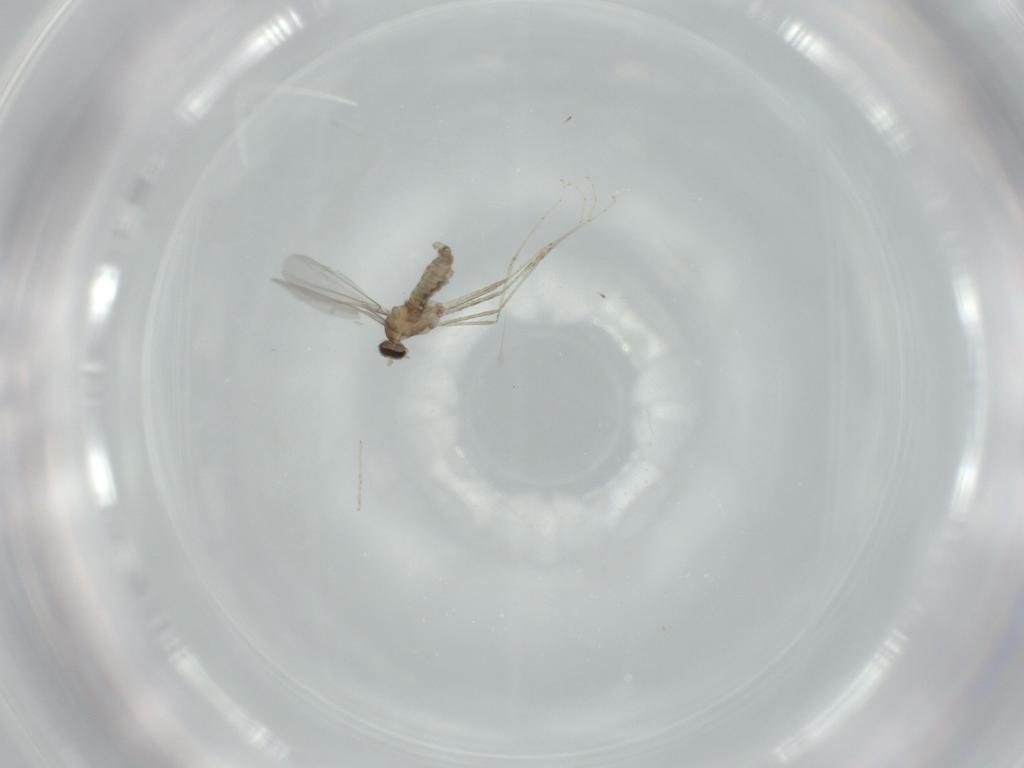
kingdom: Animalia
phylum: Arthropoda
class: Insecta
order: Diptera
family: Cecidomyiidae
